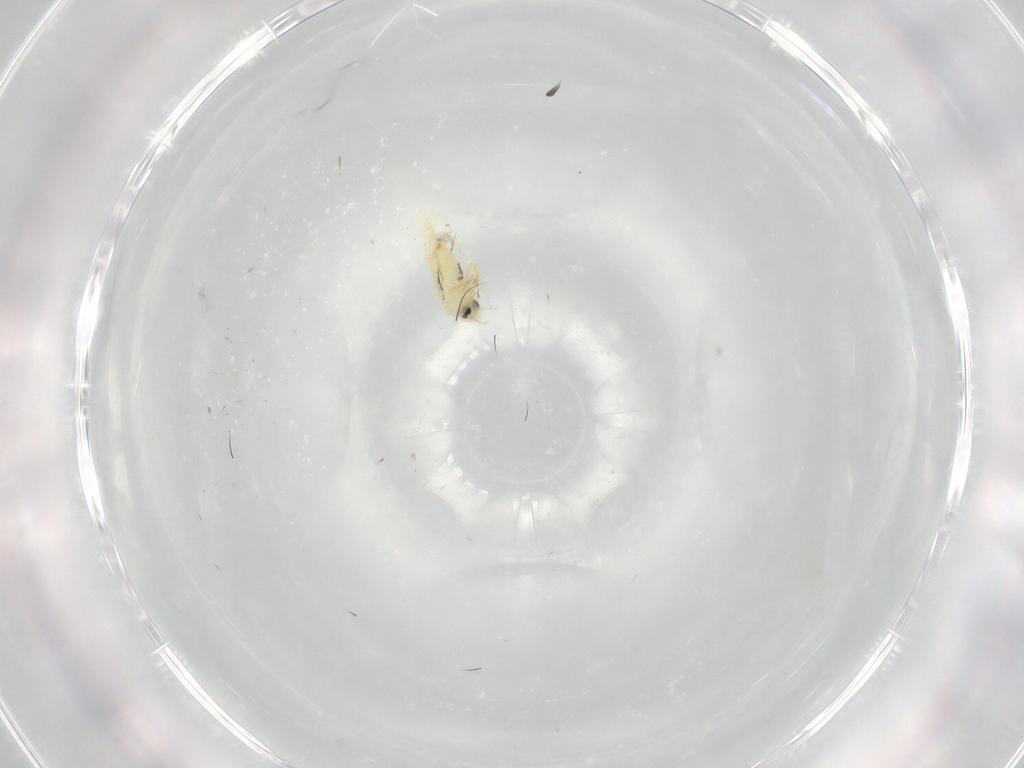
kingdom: Animalia
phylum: Arthropoda
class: Insecta
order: Hemiptera
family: Aleyrodidae
